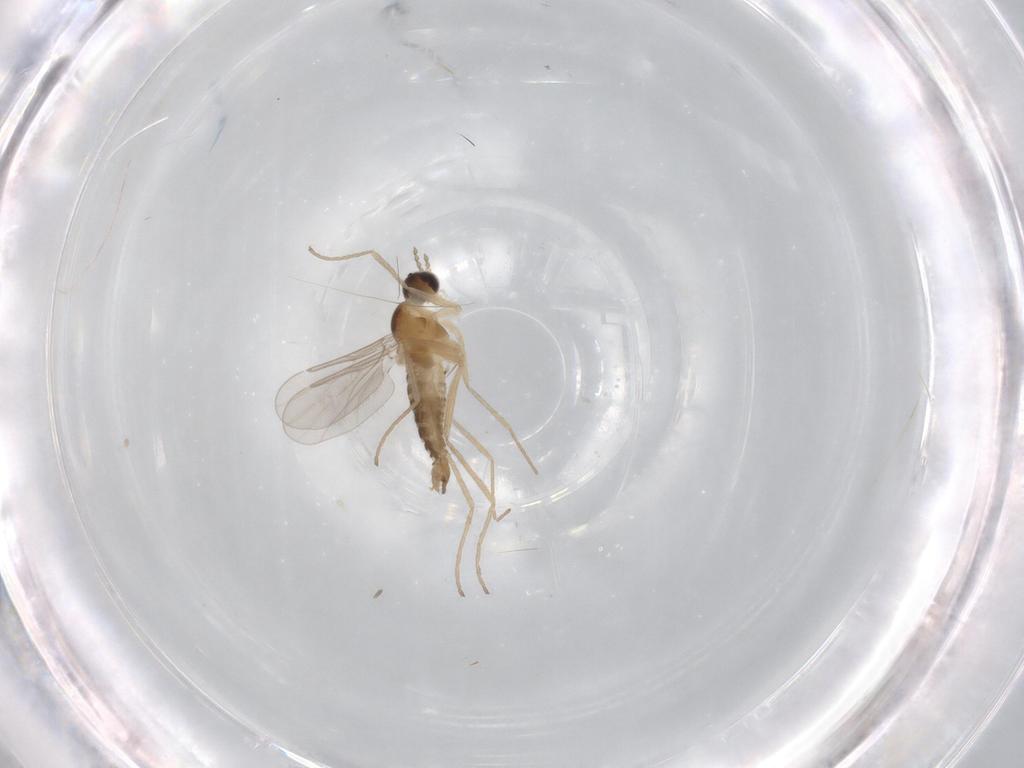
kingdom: Animalia
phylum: Arthropoda
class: Insecta
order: Diptera
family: Cecidomyiidae
